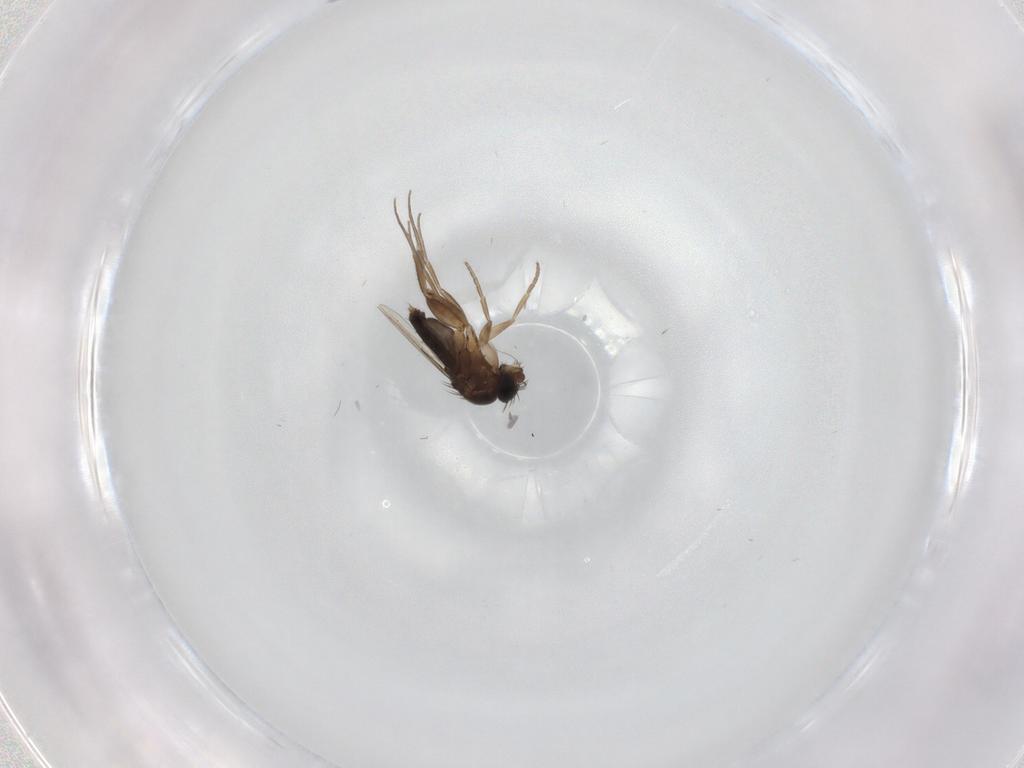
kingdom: Animalia
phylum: Arthropoda
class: Insecta
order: Diptera
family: Phoridae
